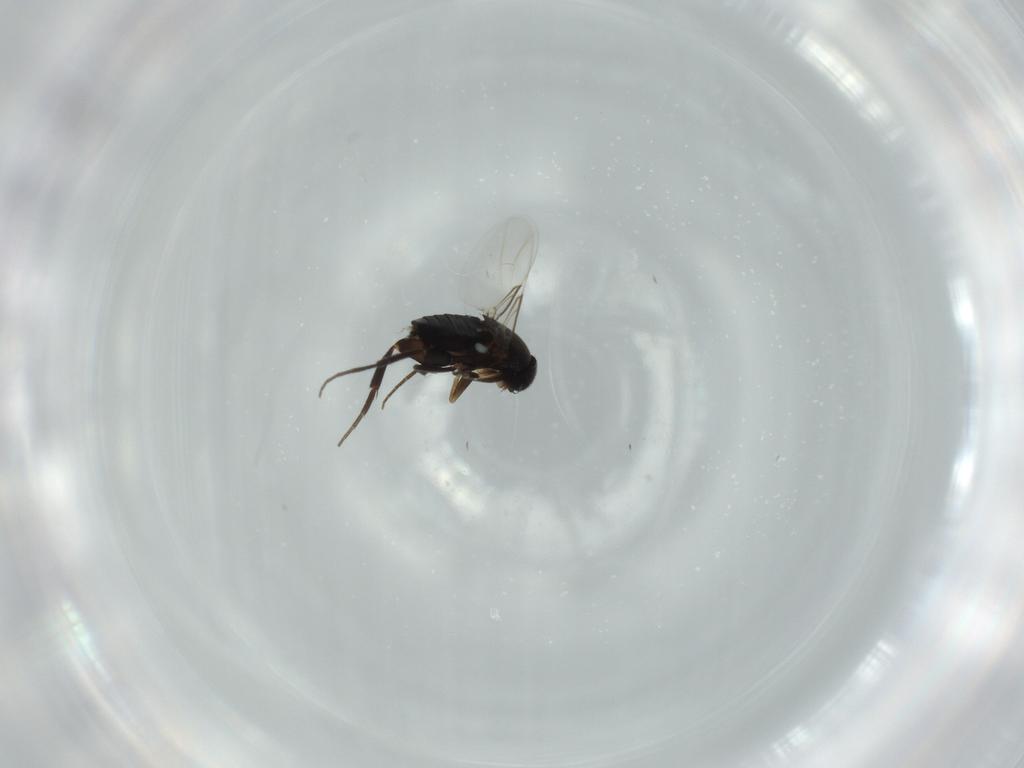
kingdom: Animalia
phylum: Arthropoda
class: Insecta
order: Diptera
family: Phoridae
